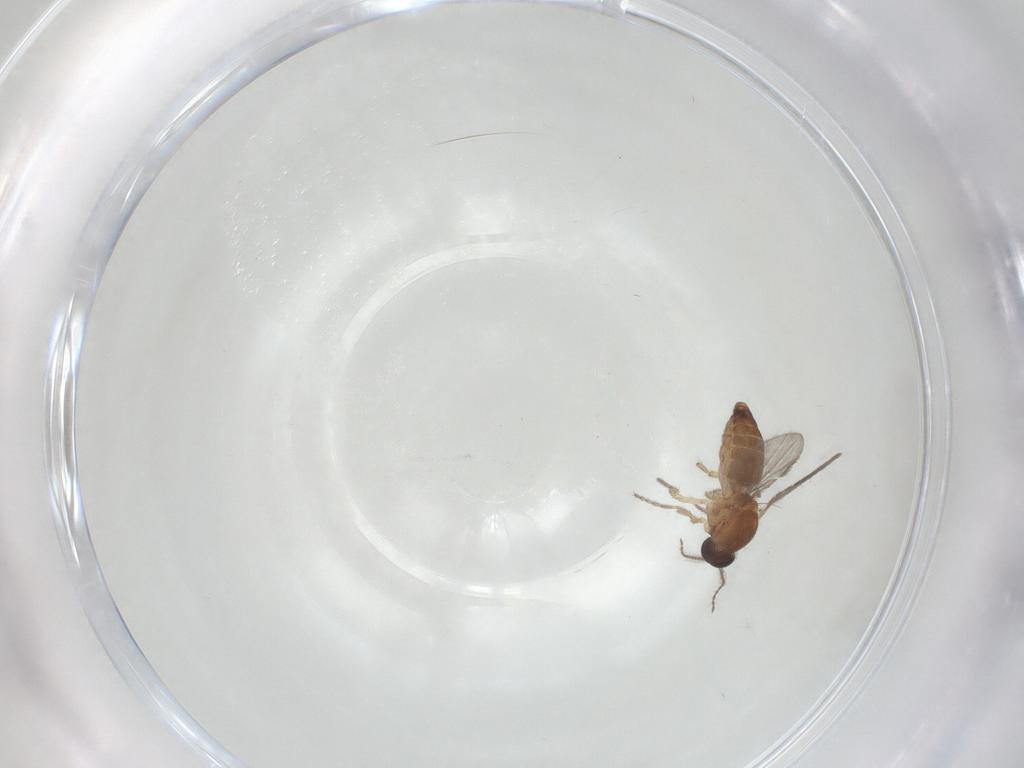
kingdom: Animalia
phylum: Arthropoda
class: Insecta
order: Diptera
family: Ceratopogonidae
